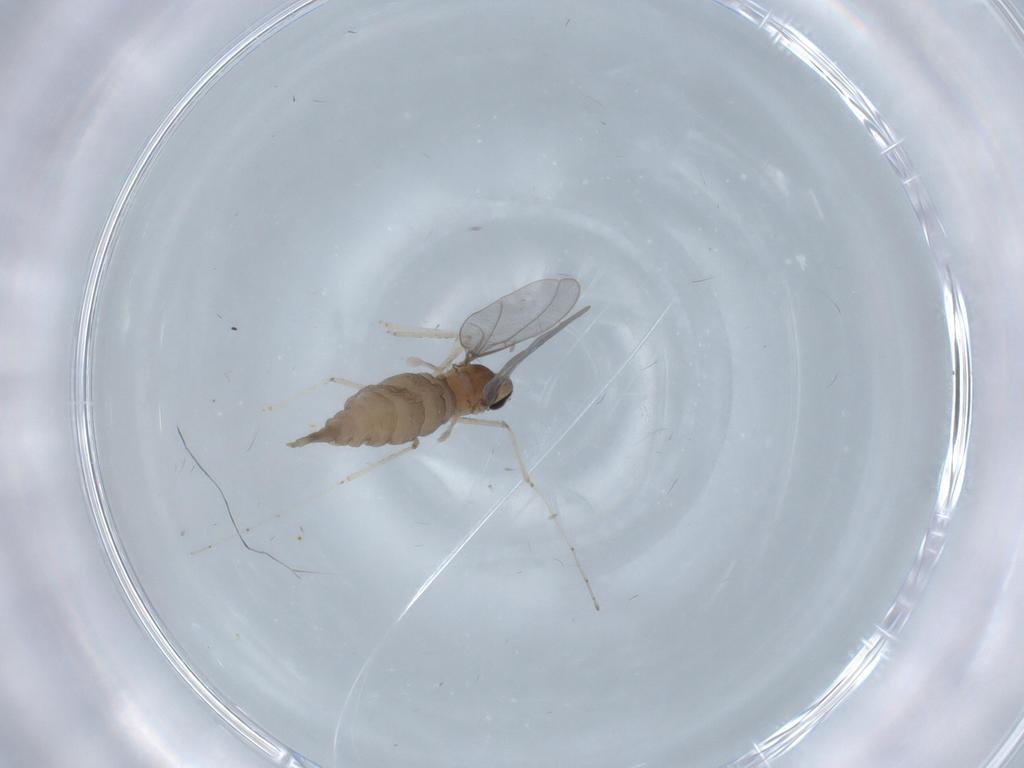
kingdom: Animalia
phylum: Arthropoda
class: Insecta
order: Diptera
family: Cecidomyiidae
